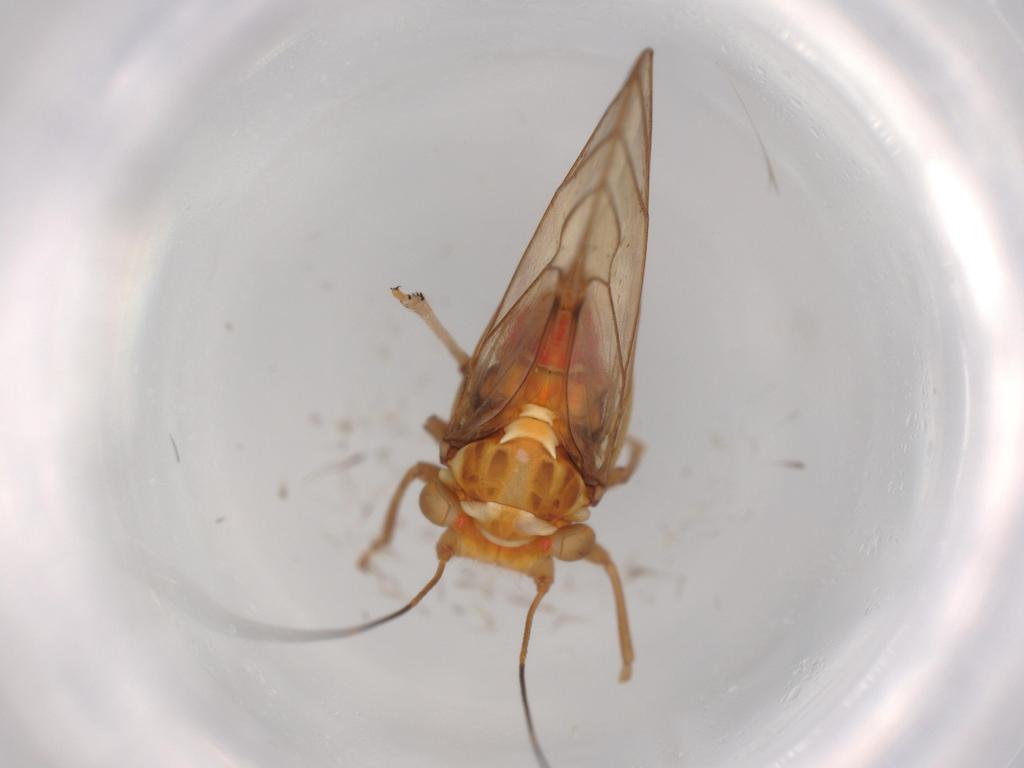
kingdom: Animalia
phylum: Arthropoda
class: Insecta
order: Hemiptera
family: Psyllidae
